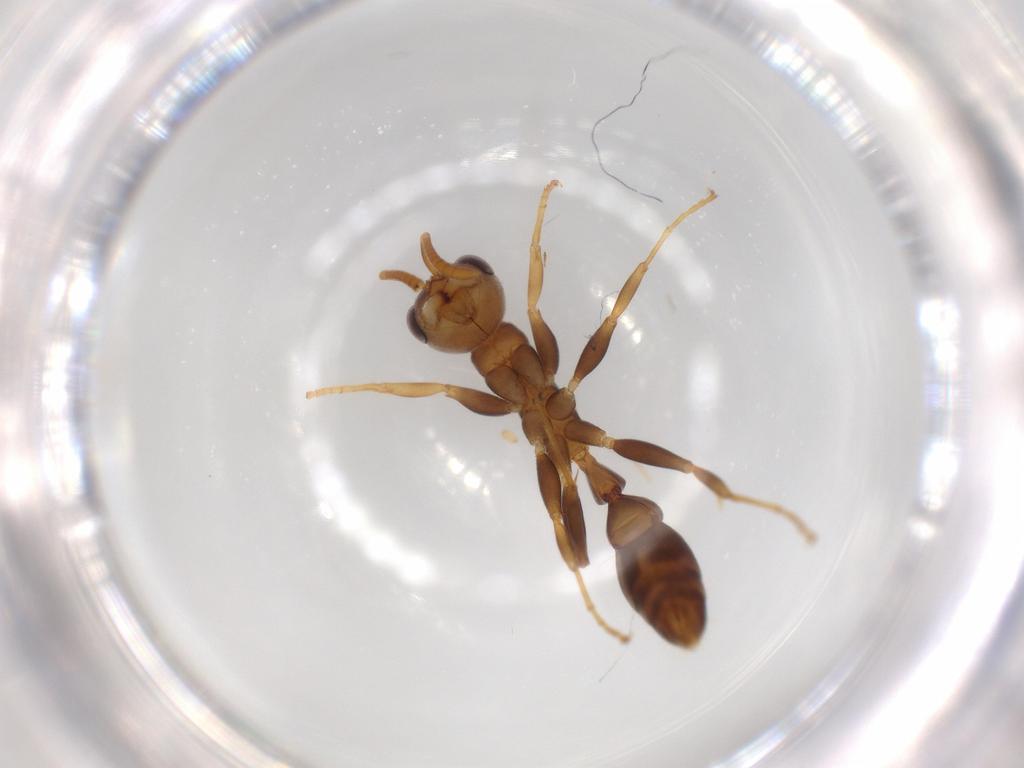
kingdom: Animalia
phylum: Arthropoda
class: Insecta
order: Hymenoptera
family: Formicidae
